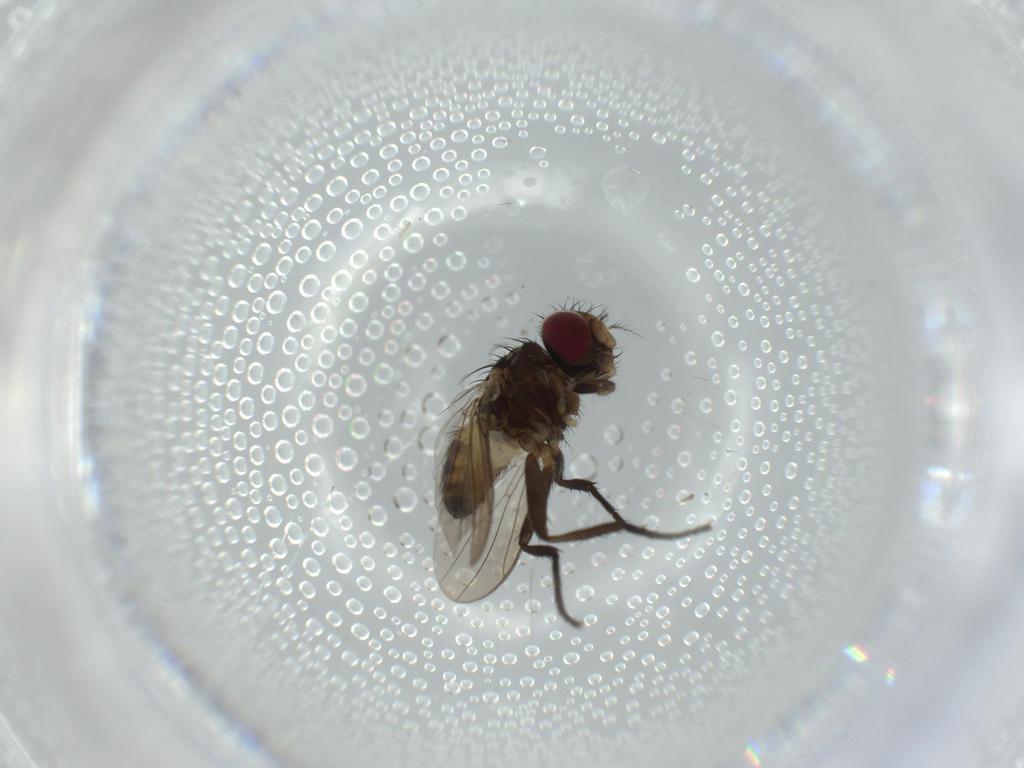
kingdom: Animalia
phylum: Arthropoda
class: Insecta
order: Diptera
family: Anthomyiidae
